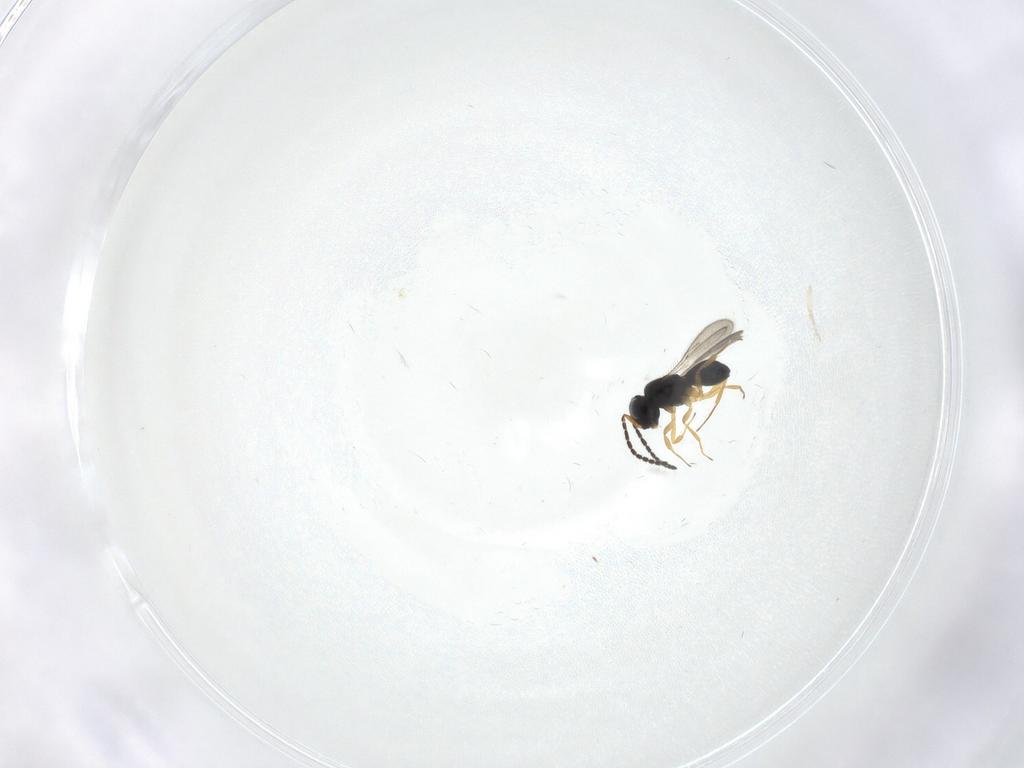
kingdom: Animalia
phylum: Arthropoda
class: Insecta
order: Hymenoptera
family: Scelionidae
